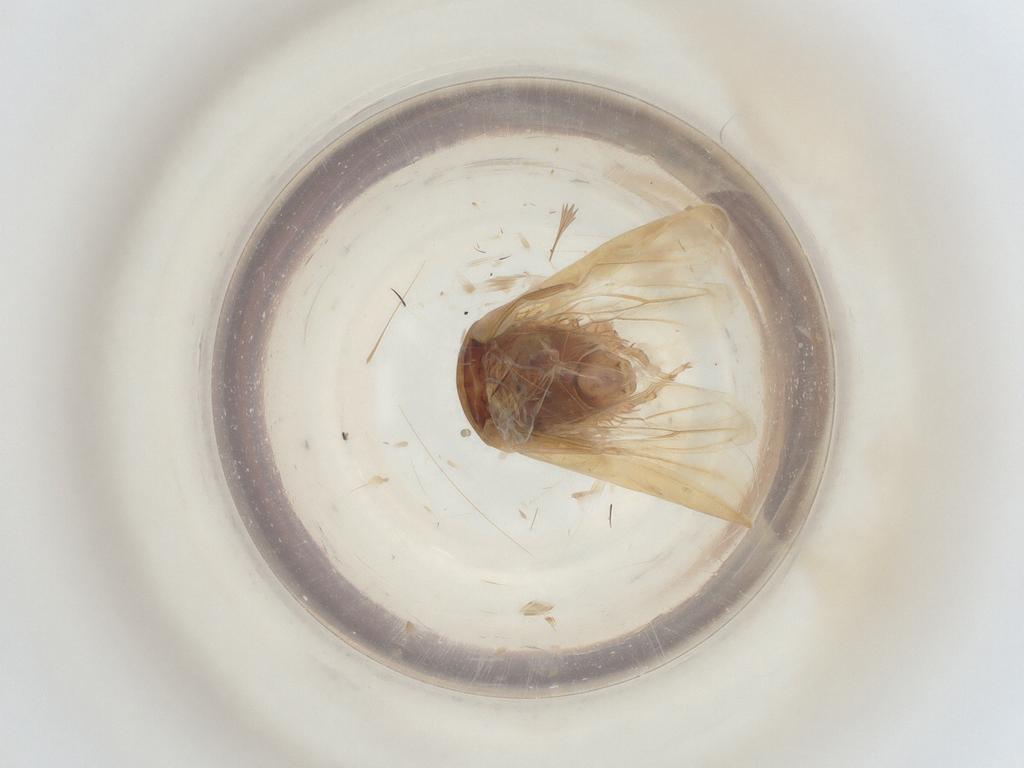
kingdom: Animalia
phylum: Arthropoda
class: Insecta
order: Hemiptera
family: Cicadellidae
